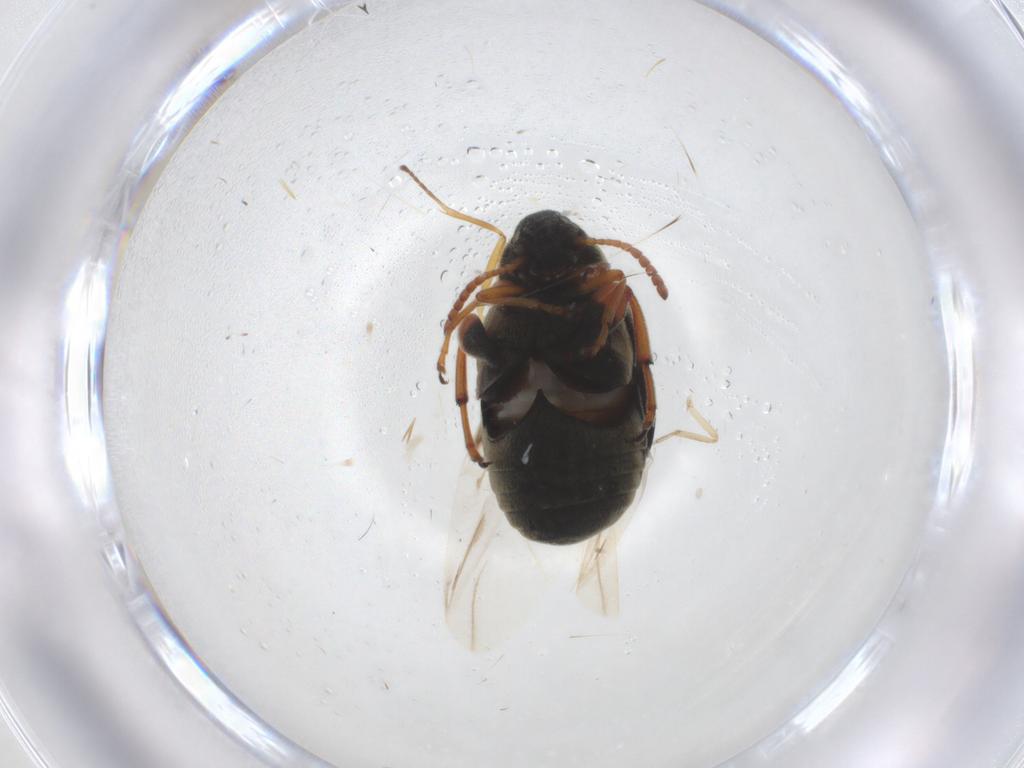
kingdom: Animalia
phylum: Arthropoda
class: Insecta
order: Coleoptera
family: Chrysomelidae
